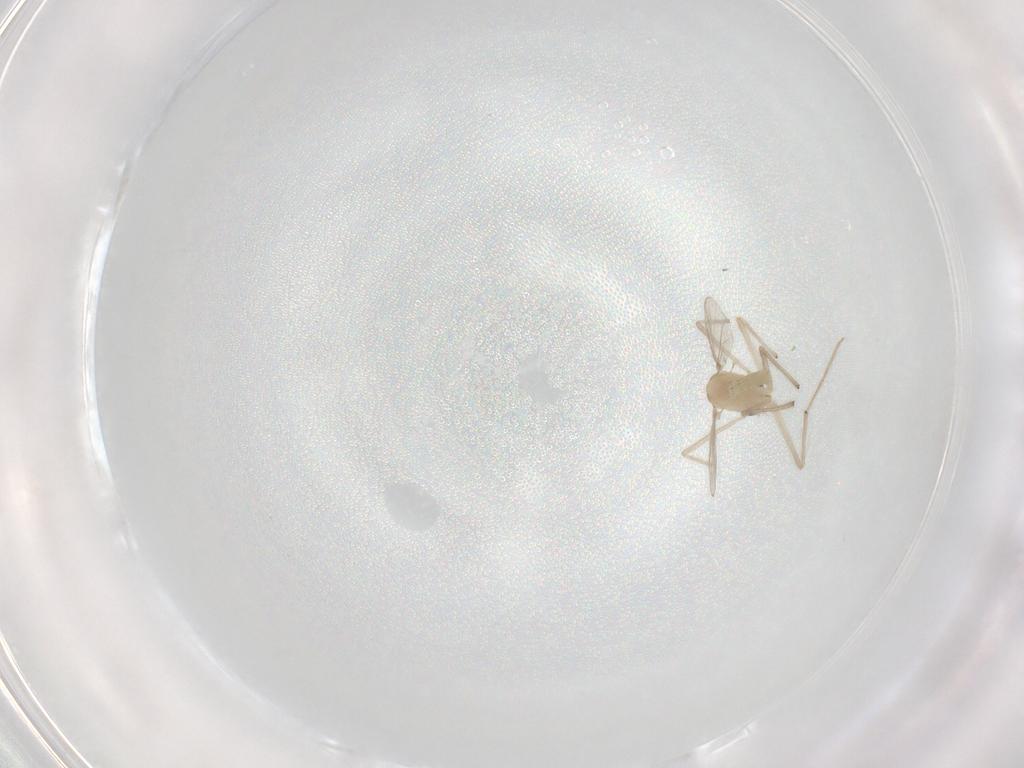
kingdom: Animalia
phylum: Arthropoda
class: Insecta
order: Diptera
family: Chironomidae
